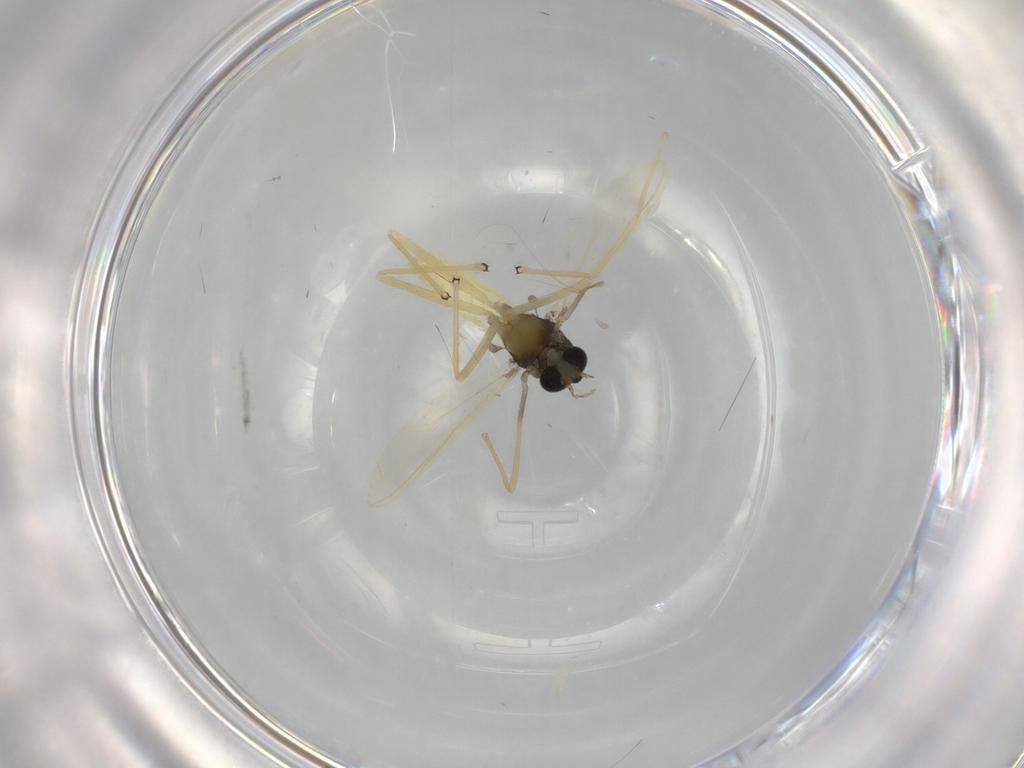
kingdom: Animalia
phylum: Arthropoda
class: Insecta
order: Diptera
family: Chironomidae
